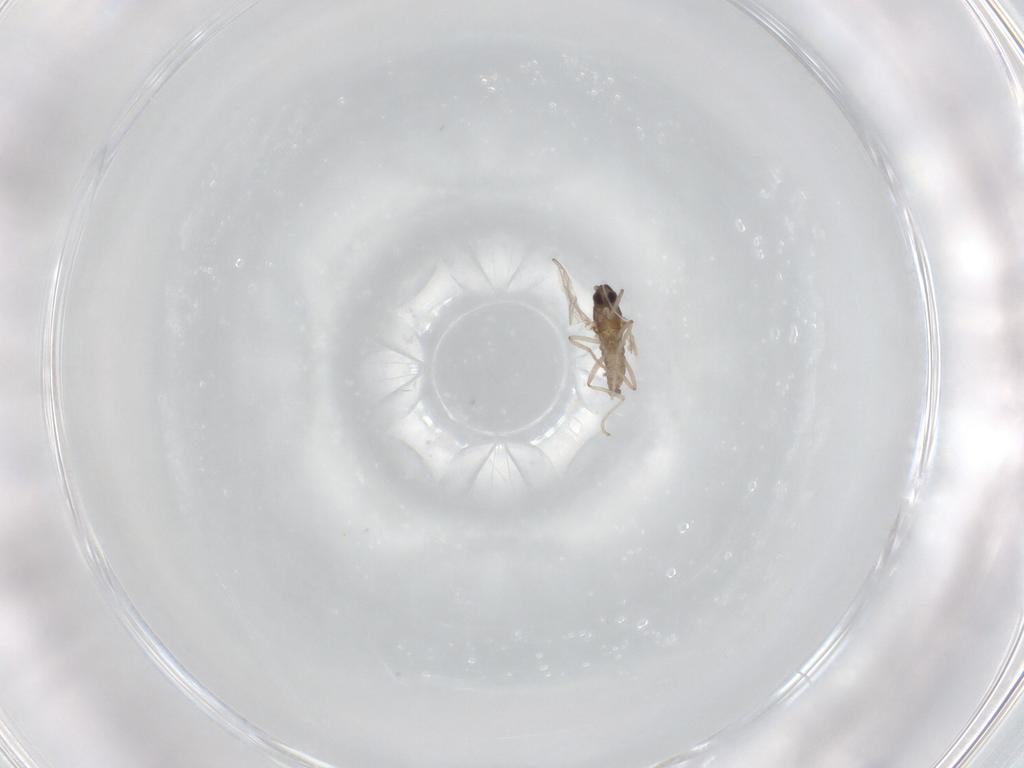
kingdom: Animalia
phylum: Arthropoda
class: Insecta
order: Diptera
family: Cecidomyiidae
